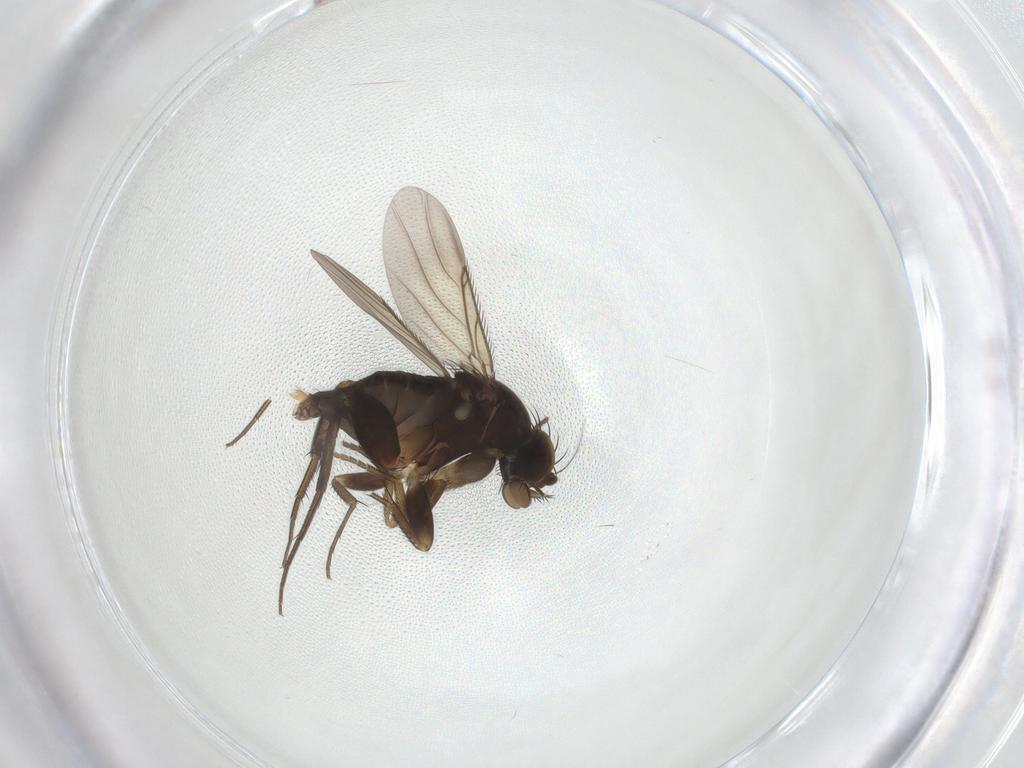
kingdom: Animalia
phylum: Arthropoda
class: Insecta
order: Diptera
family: Phoridae
